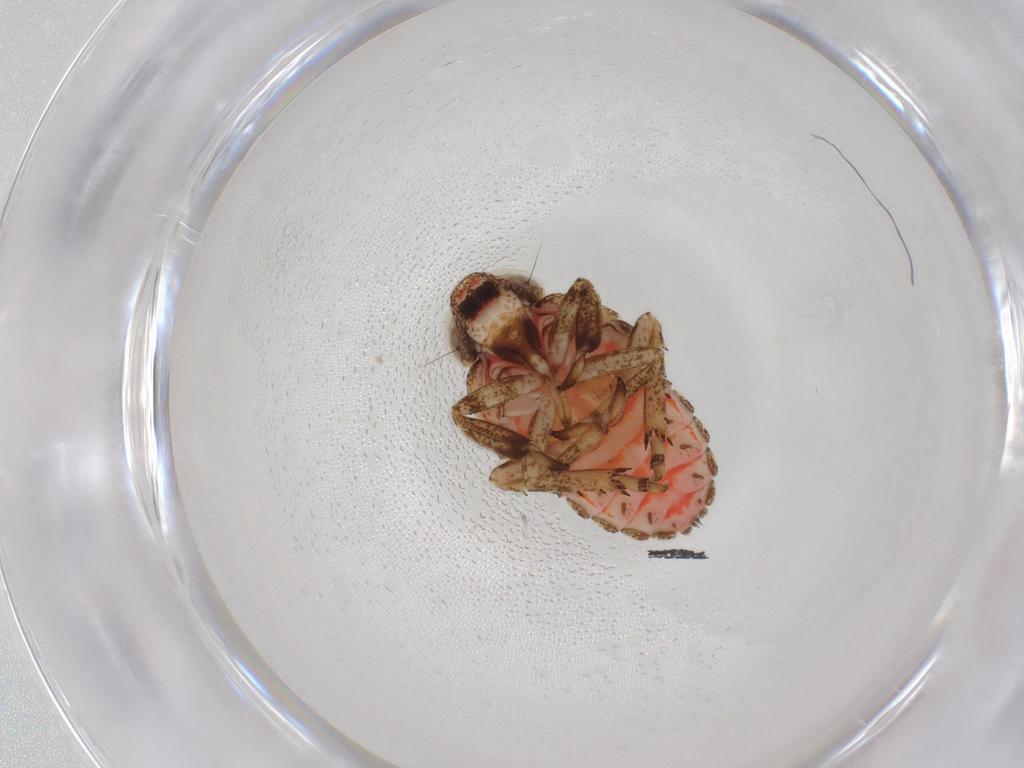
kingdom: Animalia
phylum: Arthropoda
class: Insecta
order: Hemiptera
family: Issidae
